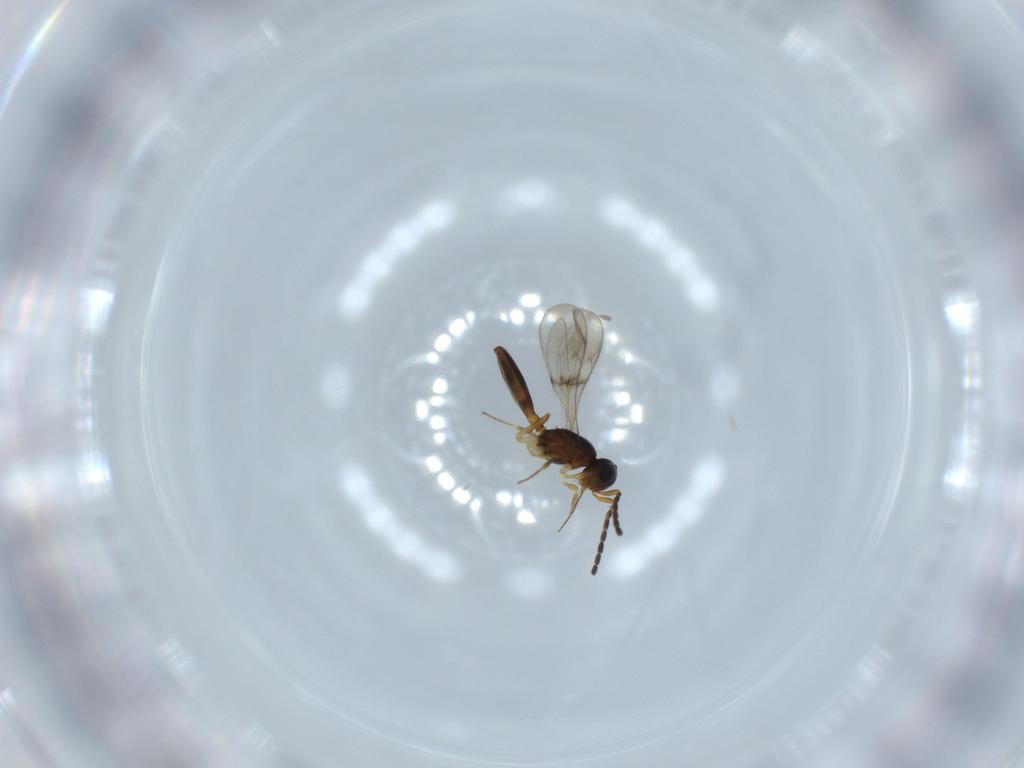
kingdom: Animalia
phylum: Arthropoda
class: Insecta
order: Hymenoptera
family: Scelionidae
